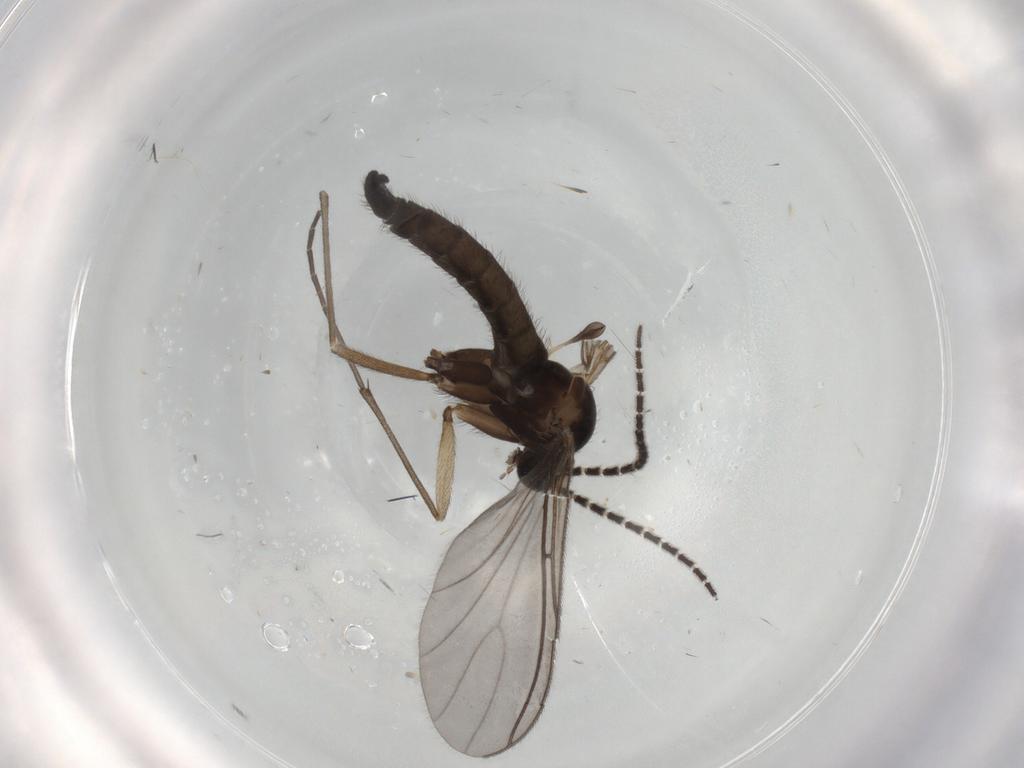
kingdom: Animalia
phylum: Arthropoda
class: Insecta
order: Diptera
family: Sciaridae
